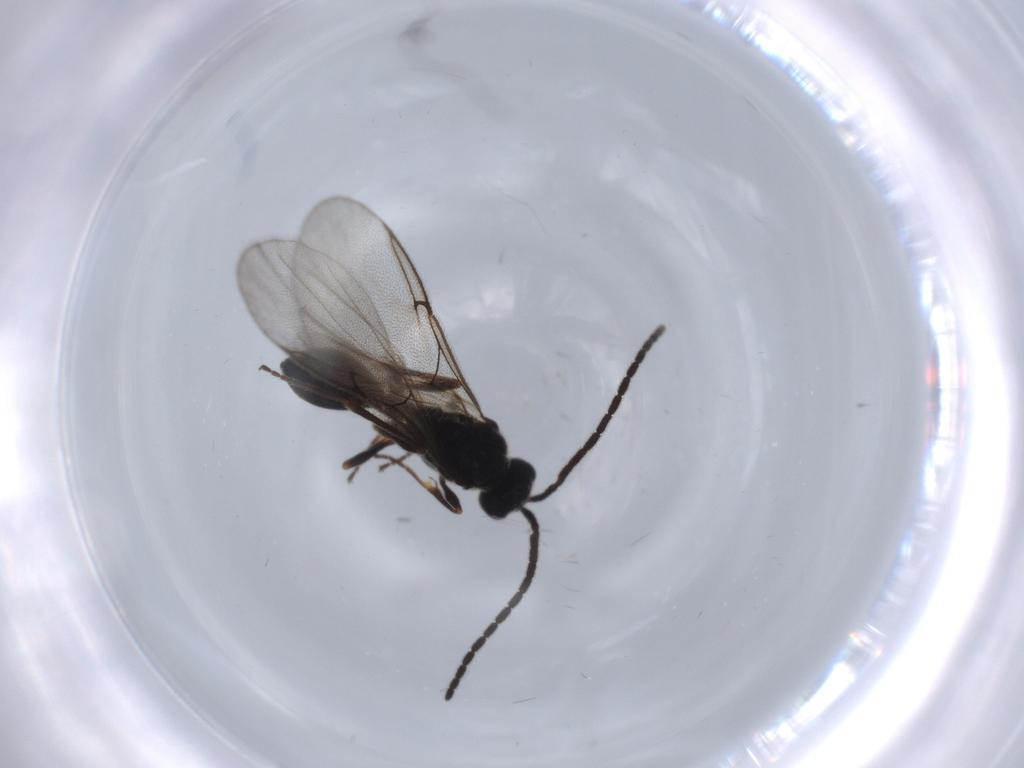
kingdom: Animalia
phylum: Arthropoda
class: Insecta
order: Hymenoptera
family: Diapriidae
